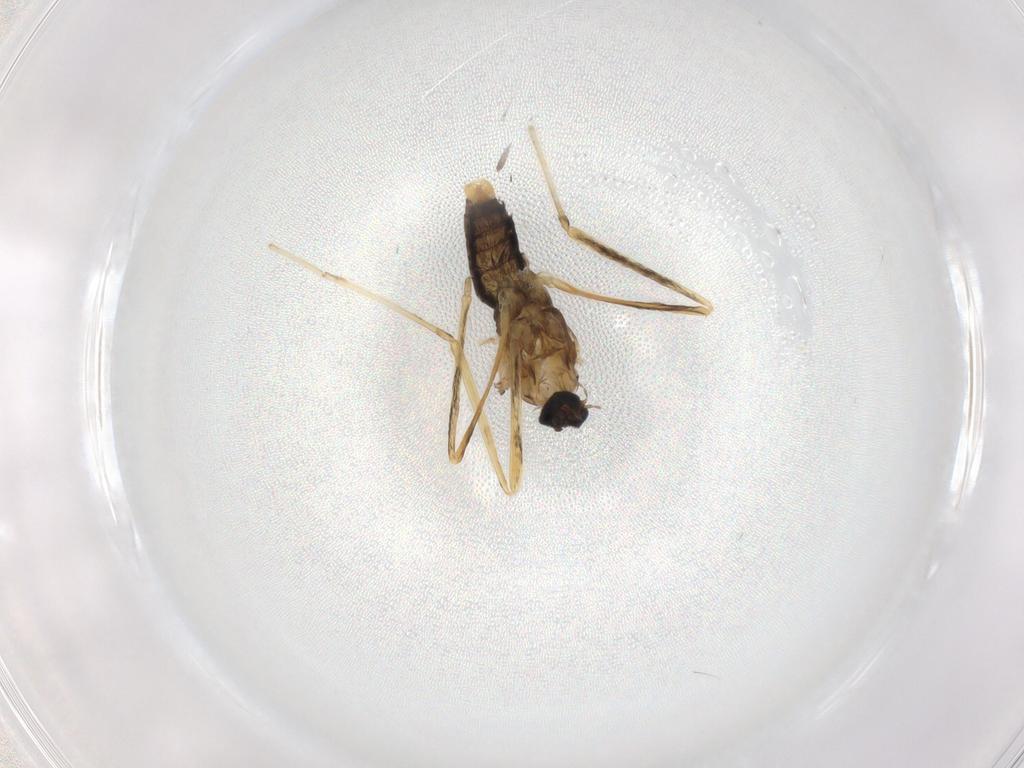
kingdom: Animalia
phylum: Arthropoda
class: Insecta
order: Diptera
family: Cecidomyiidae
